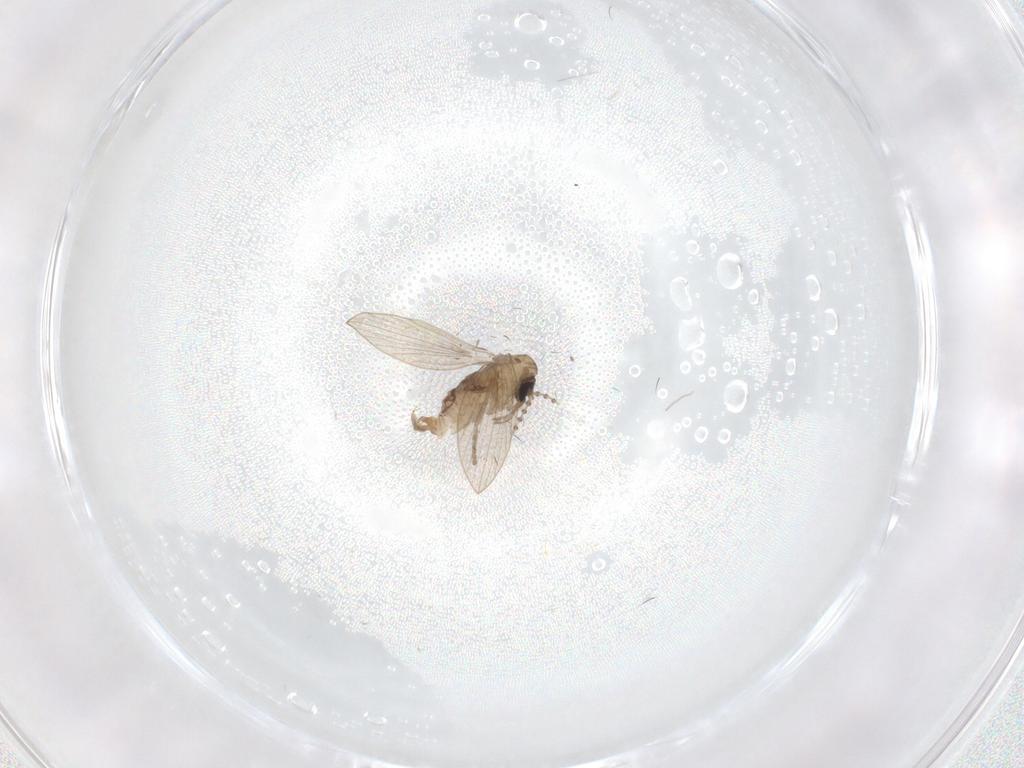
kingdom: Animalia
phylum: Arthropoda
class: Insecta
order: Diptera
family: Psychodidae
